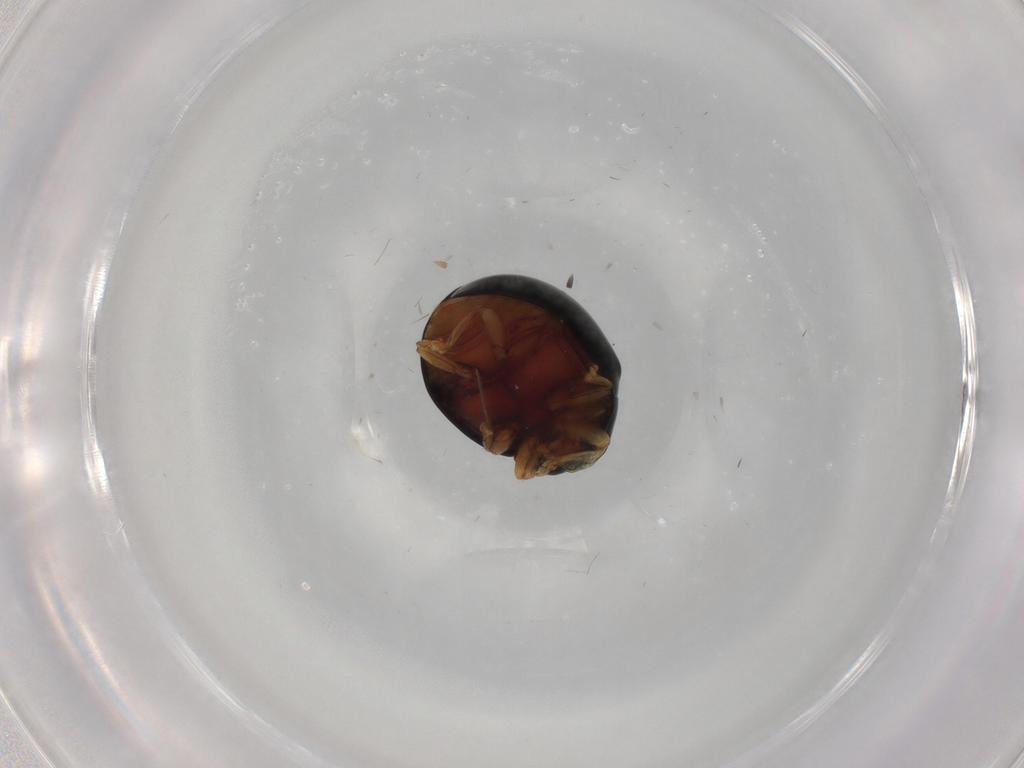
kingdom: Animalia
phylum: Arthropoda
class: Insecta
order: Coleoptera
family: Coccinellidae
